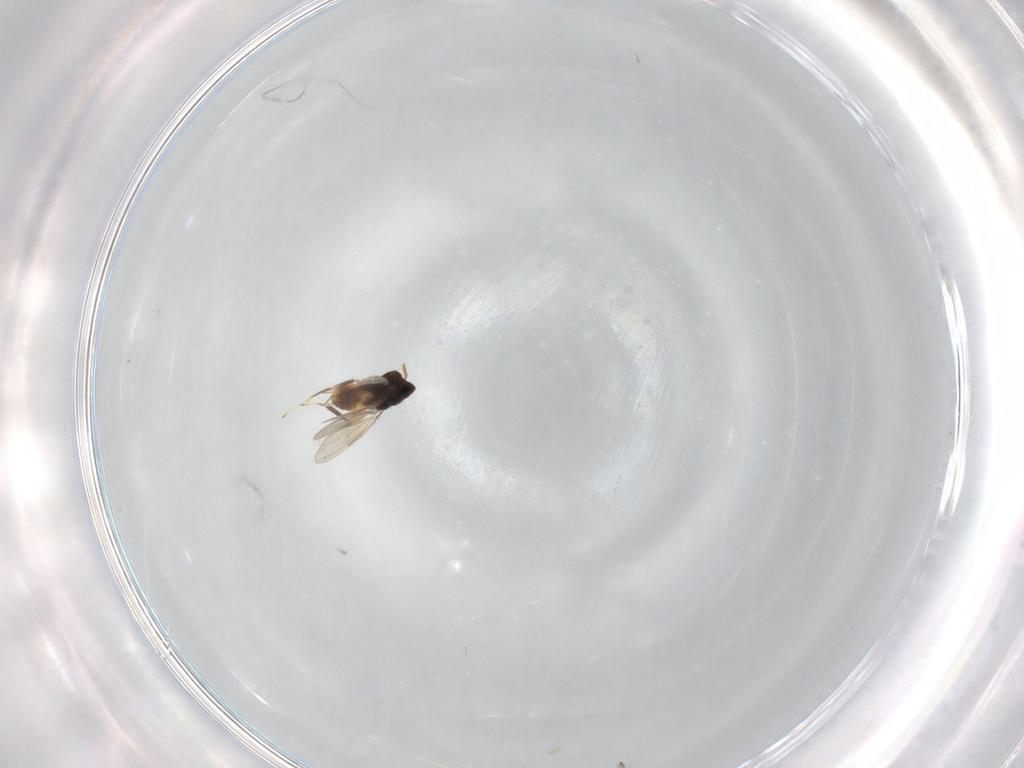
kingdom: Animalia
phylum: Arthropoda
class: Insecta
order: Hymenoptera
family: Aphelinidae
